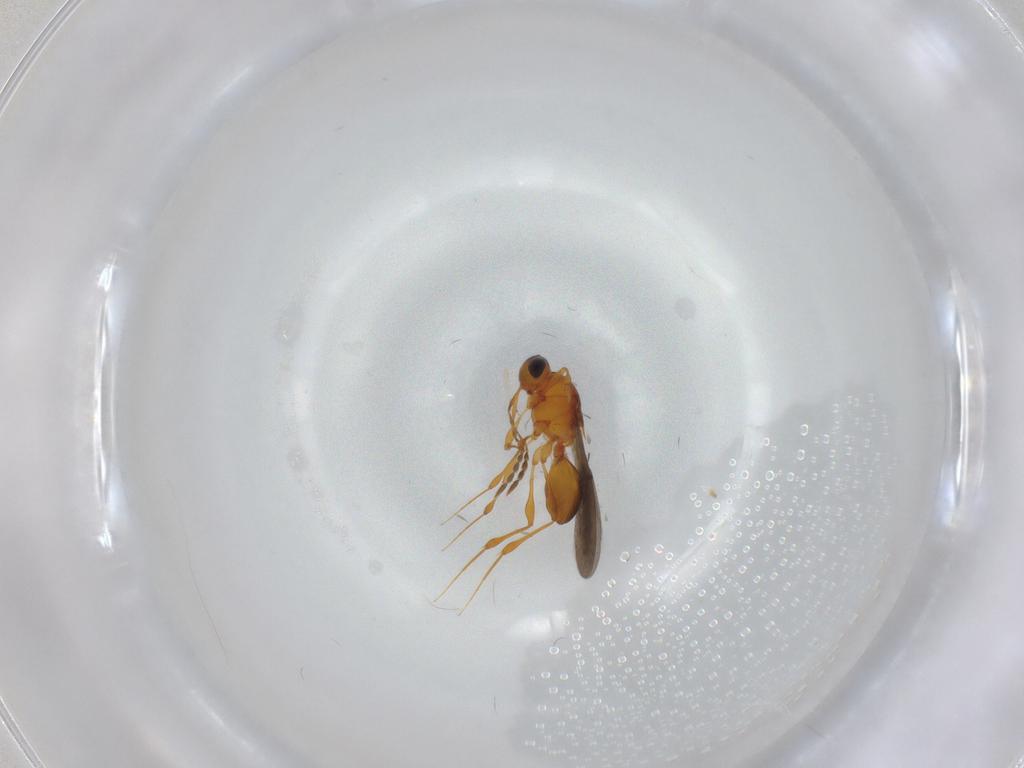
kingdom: Animalia
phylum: Arthropoda
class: Insecta
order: Hymenoptera
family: Platygastridae
